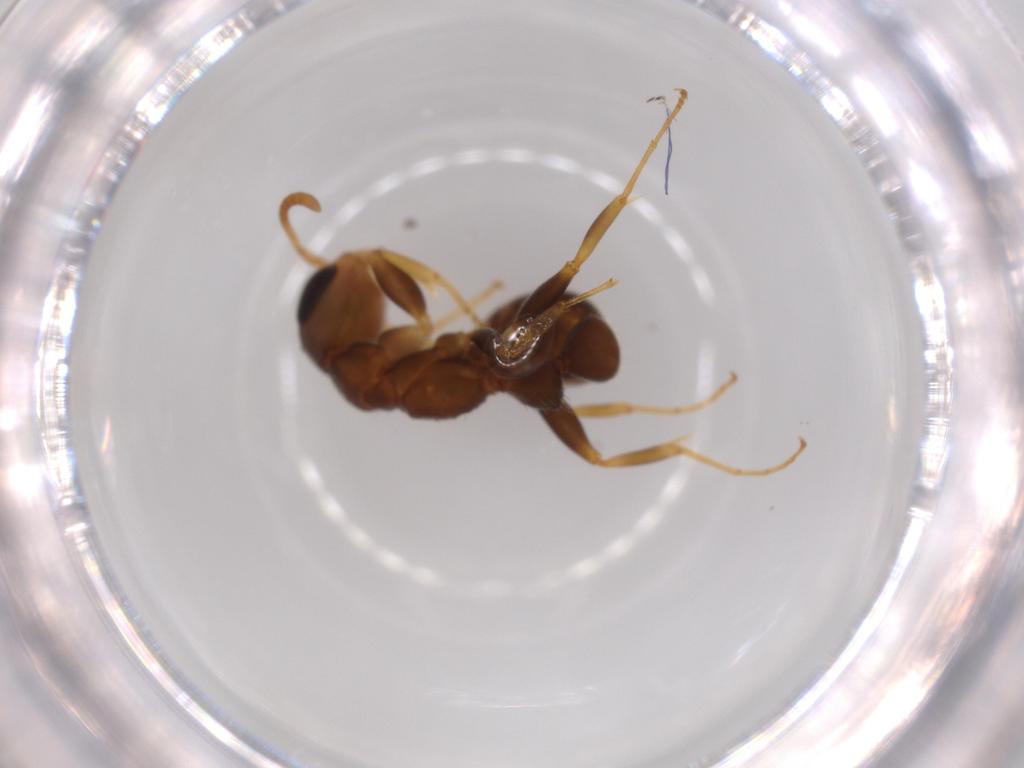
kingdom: Animalia
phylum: Arthropoda
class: Insecta
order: Hymenoptera
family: Formicidae
